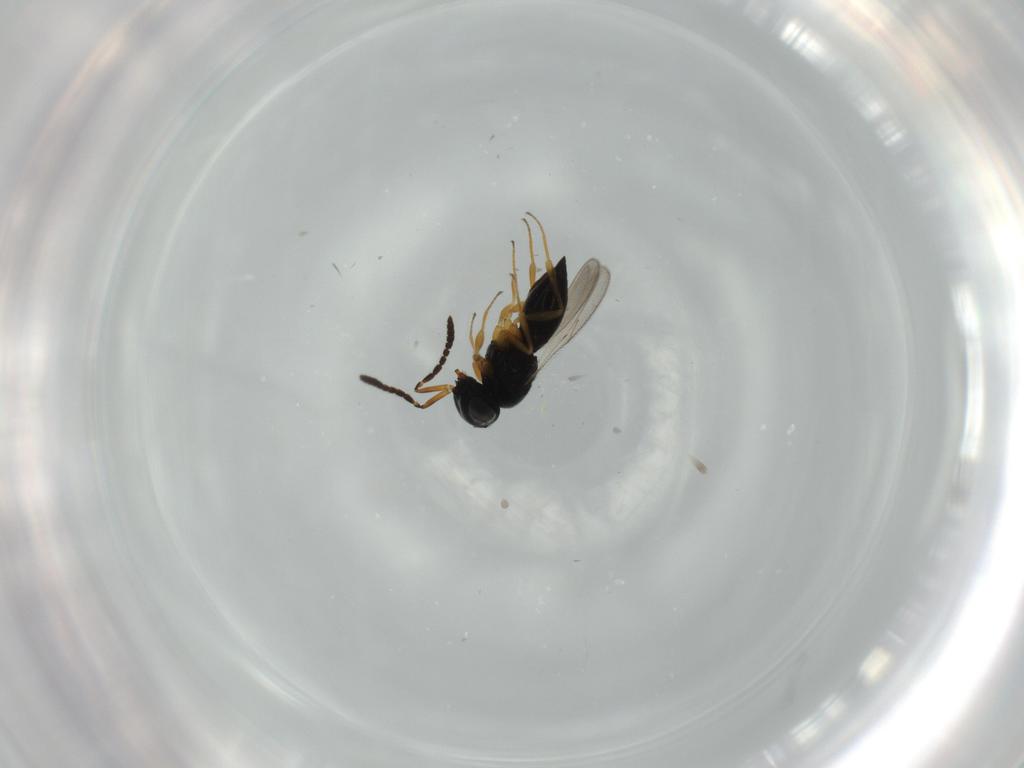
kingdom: Animalia
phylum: Arthropoda
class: Insecta
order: Hymenoptera
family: Scelionidae
